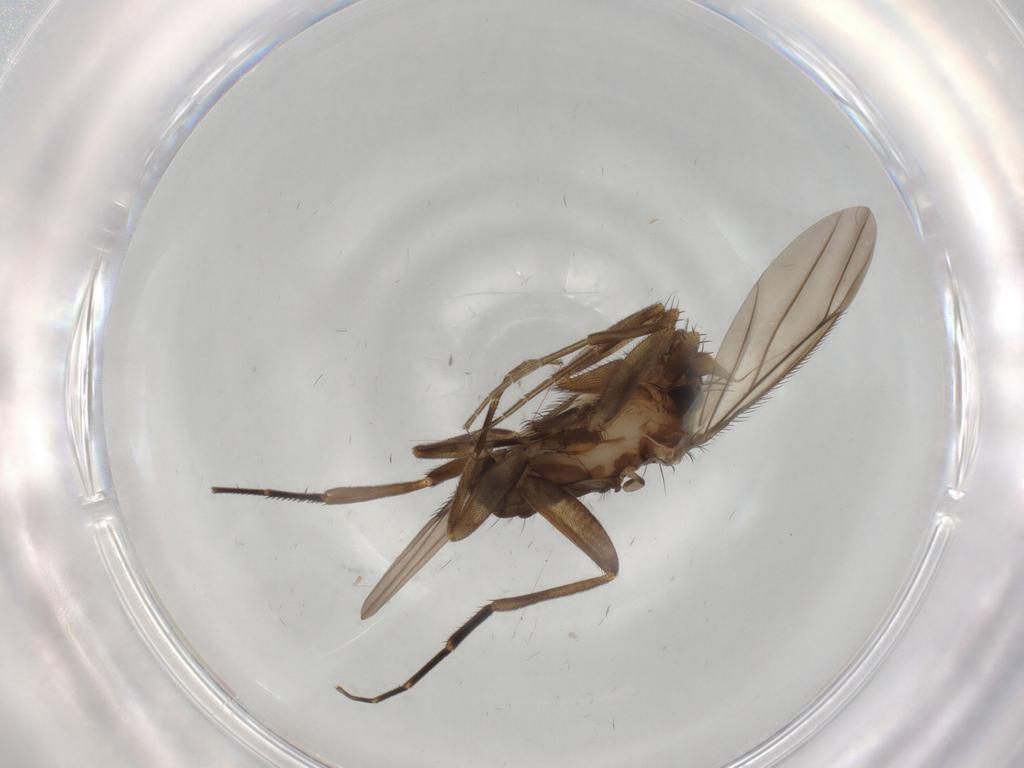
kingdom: Animalia
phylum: Arthropoda
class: Insecta
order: Diptera
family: Phoridae
